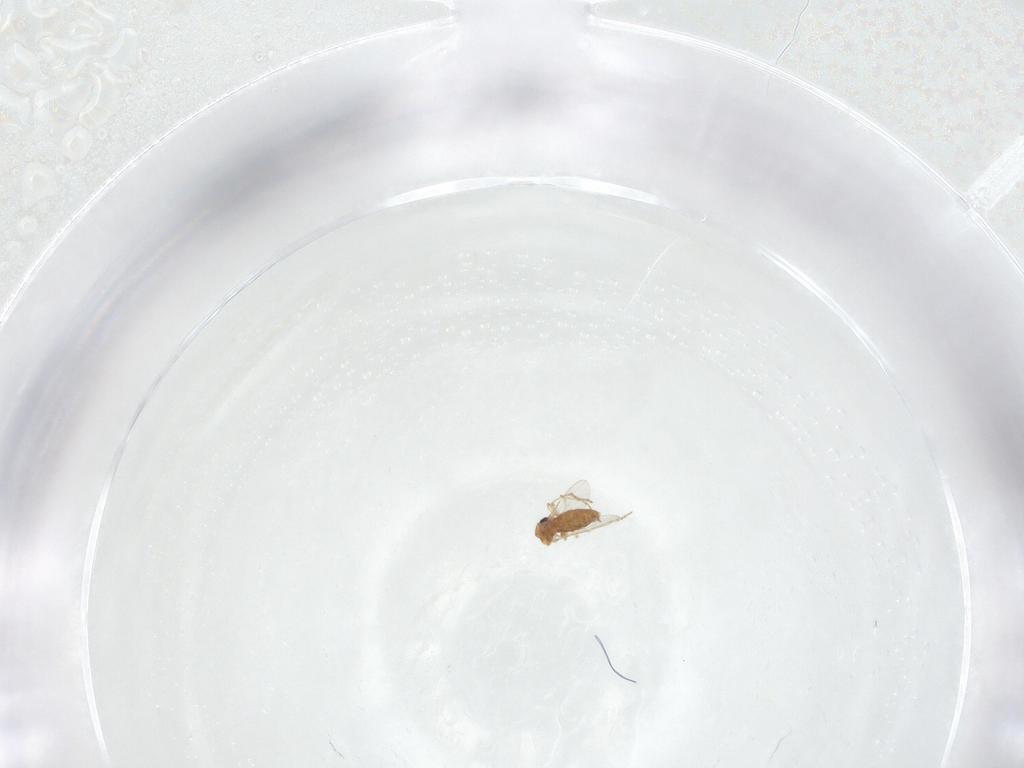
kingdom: Animalia
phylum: Arthropoda
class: Insecta
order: Diptera
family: Ceratopogonidae
